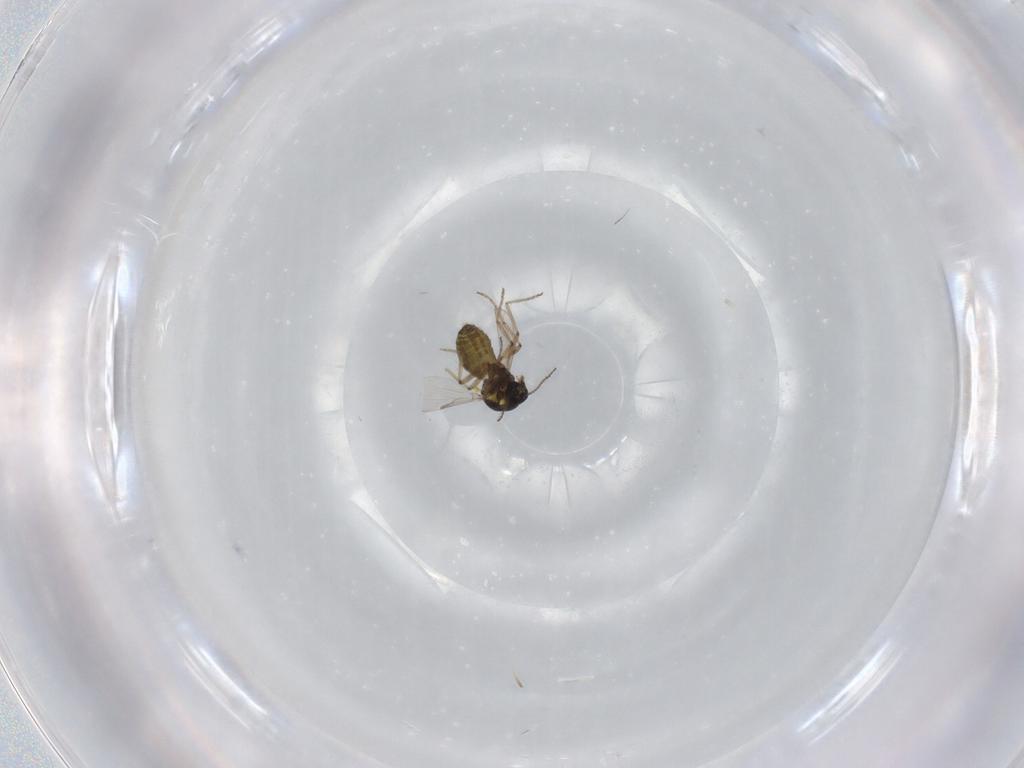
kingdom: Animalia
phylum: Arthropoda
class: Insecta
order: Diptera
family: Ceratopogonidae
